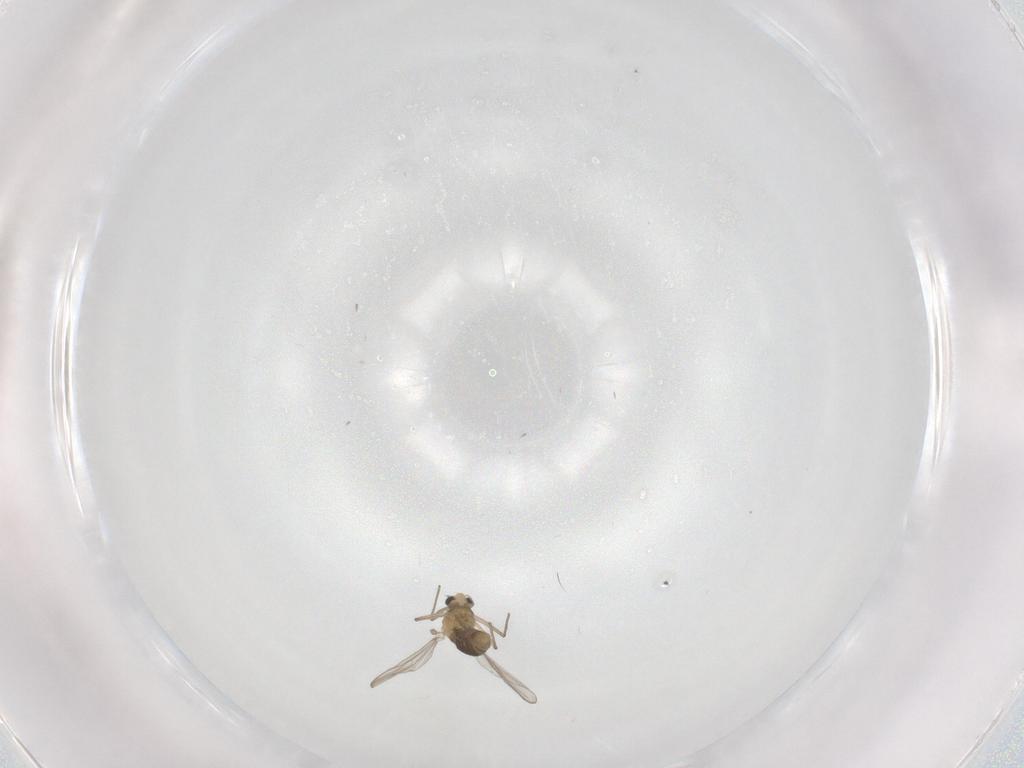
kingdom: Animalia
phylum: Arthropoda
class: Insecta
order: Diptera
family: Chironomidae
